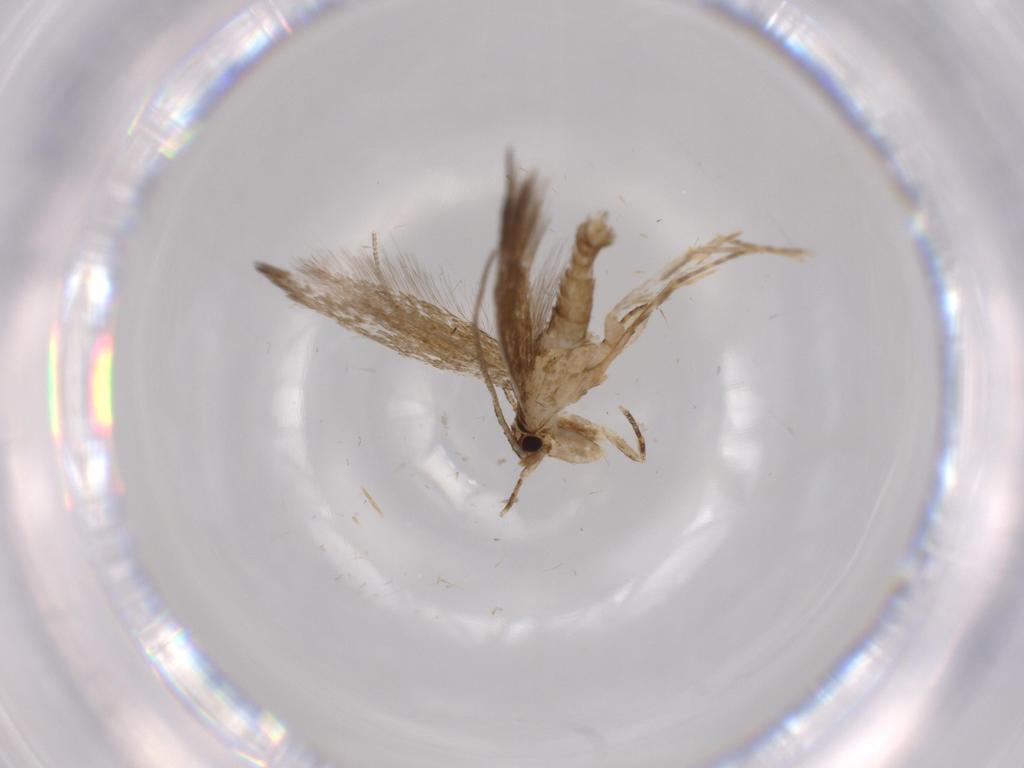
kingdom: Animalia
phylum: Arthropoda
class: Insecta
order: Lepidoptera
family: Tineidae
